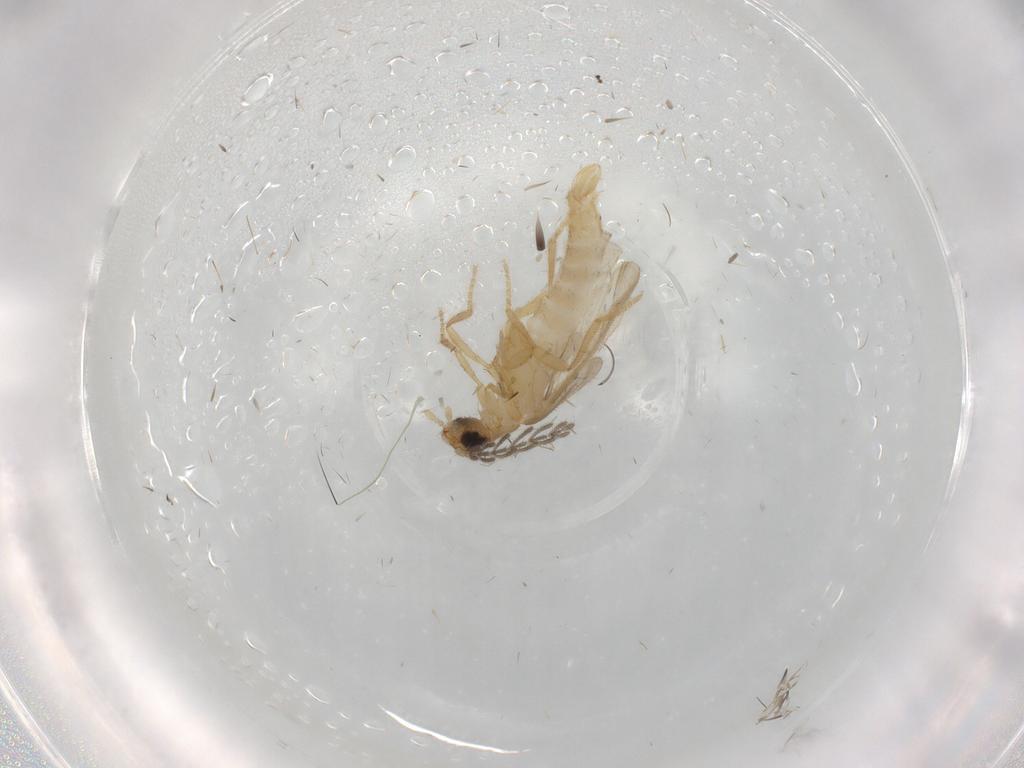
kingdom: Animalia
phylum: Arthropoda
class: Insecta
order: Coleoptera
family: Chrysomelidae
